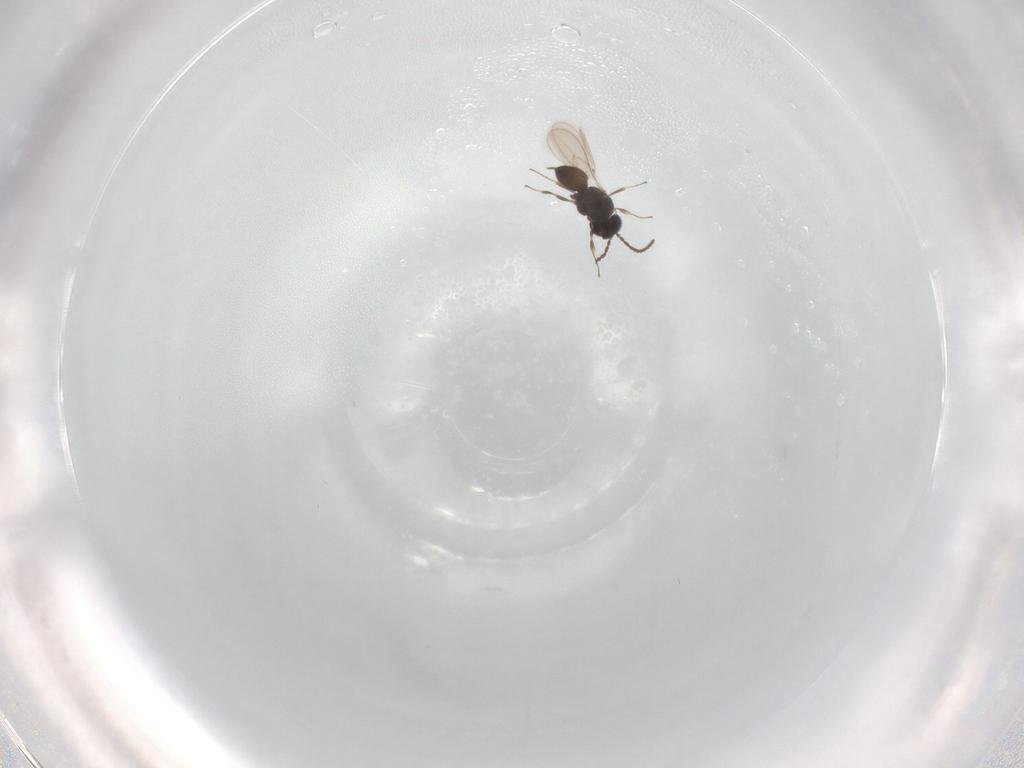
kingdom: Animalia
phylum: Arthropoda
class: Insecta
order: Hymenoptera
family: Scelionidae
